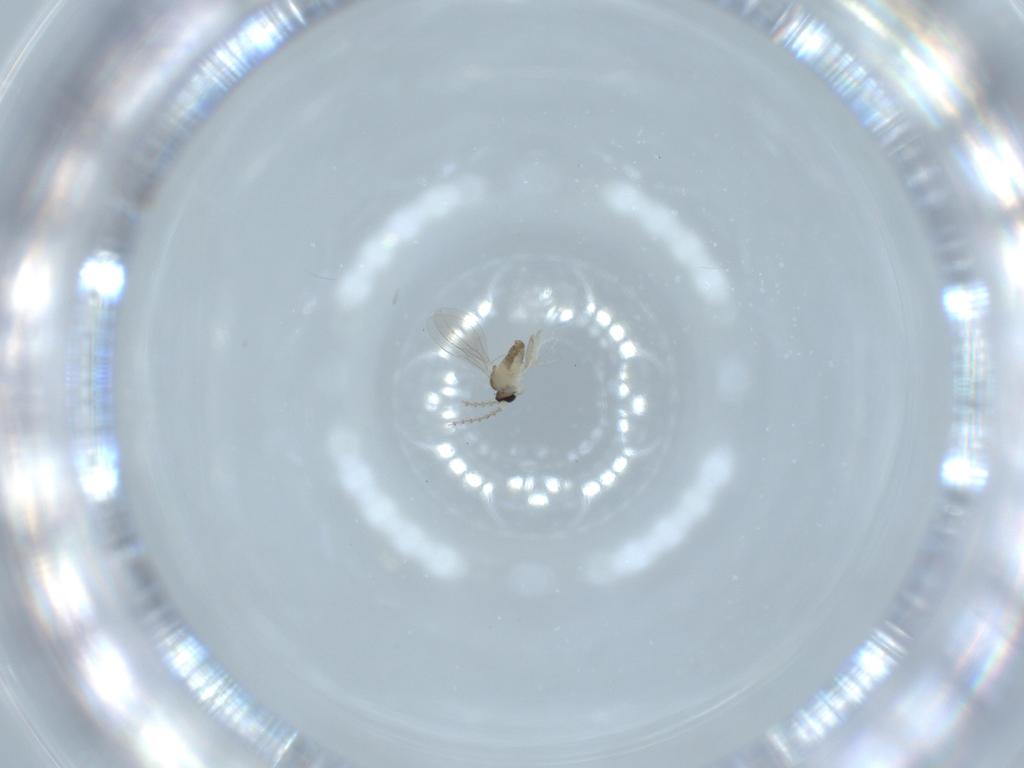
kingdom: Animalia
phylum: Arthropoda
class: Insecta
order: Diptera
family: Cecidomyiidae
